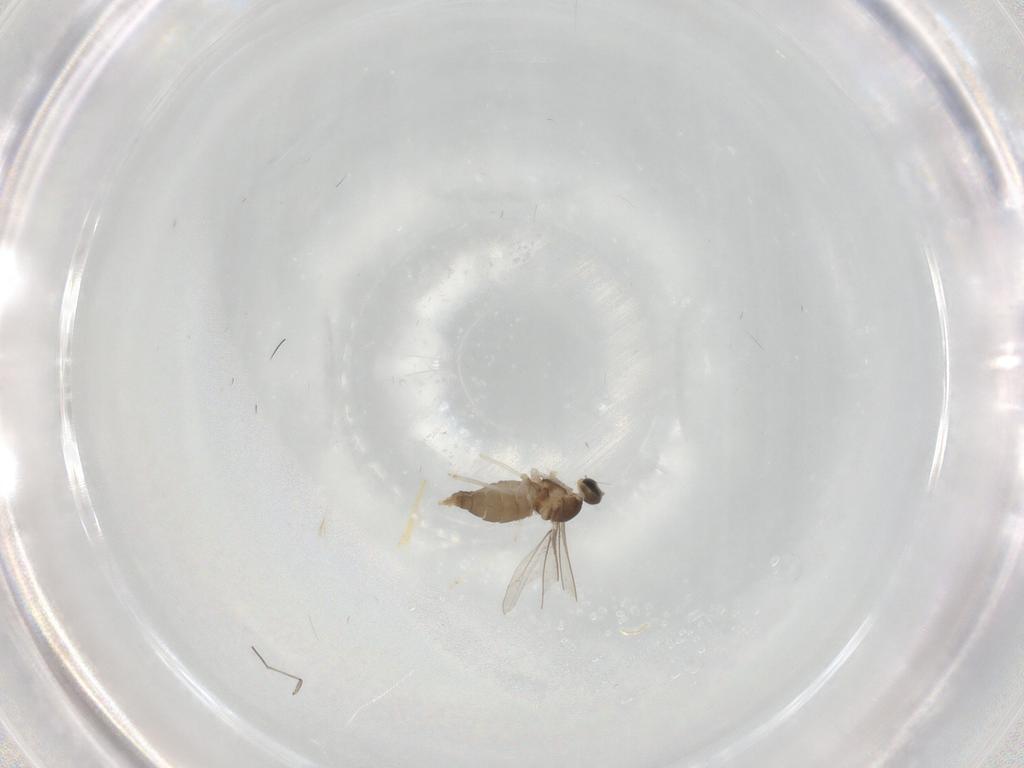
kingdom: Animalia
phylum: Arthropoda
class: Insecta
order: Diptera
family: Cecidomyiidae
